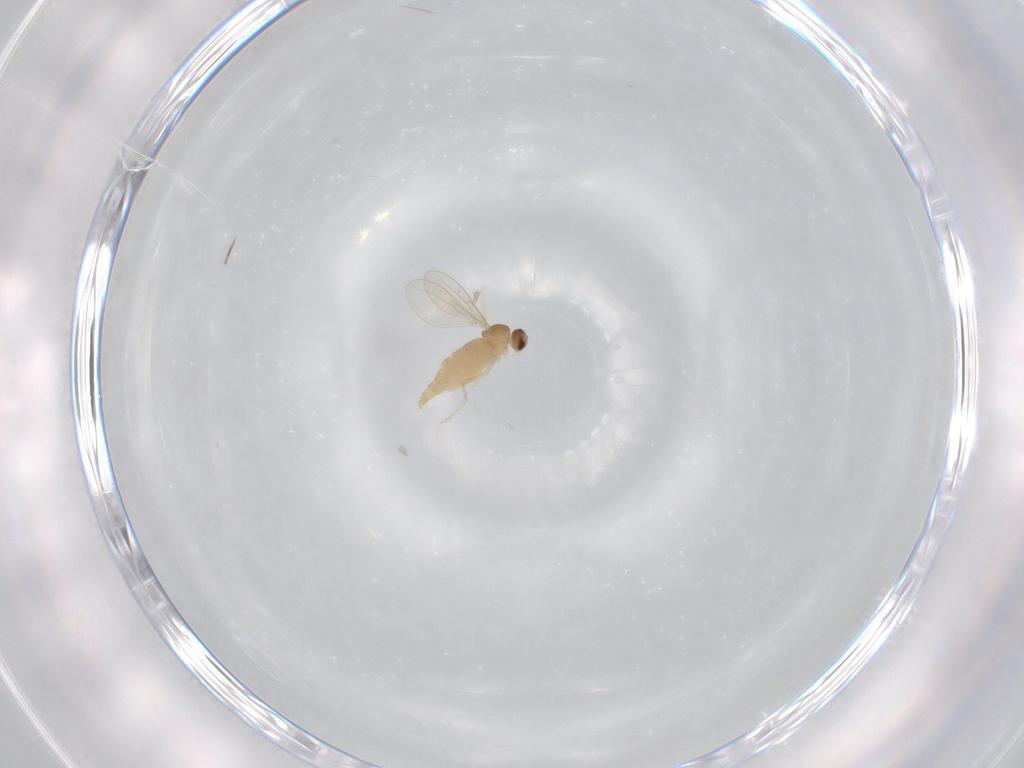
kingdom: Animalia
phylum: Arthropoda
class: Insecta
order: Diptera
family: Cecidomyiidae
